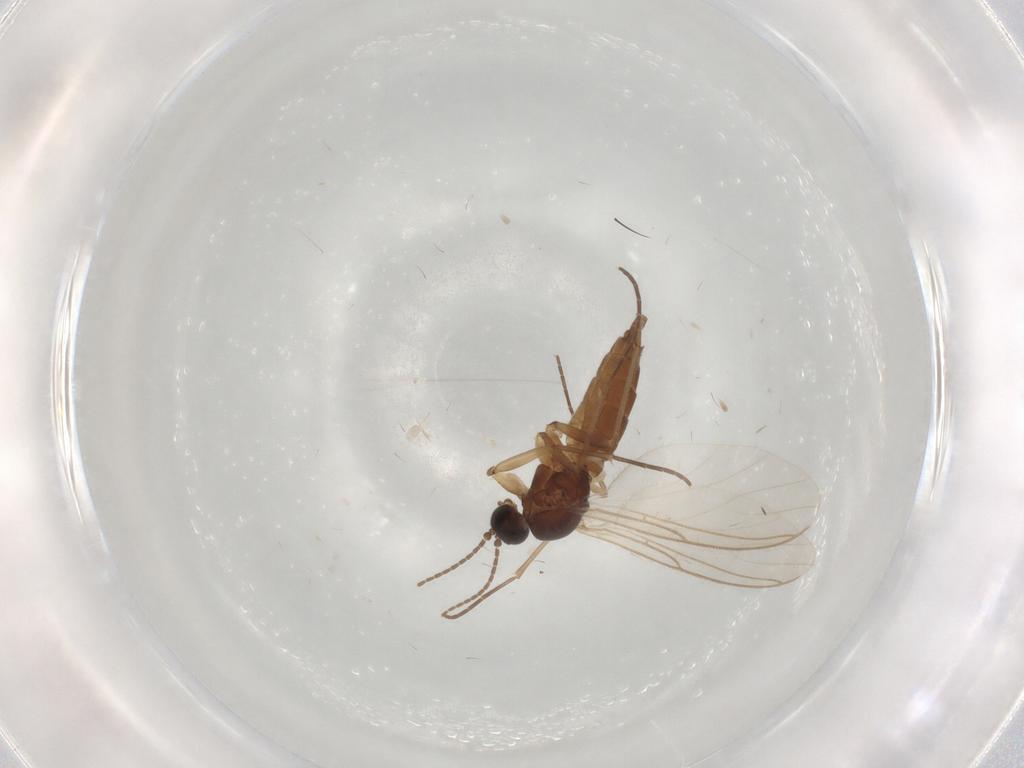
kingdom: Animalia
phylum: Arthropoda
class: Insecta
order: Diptera
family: Dolichopodidae
